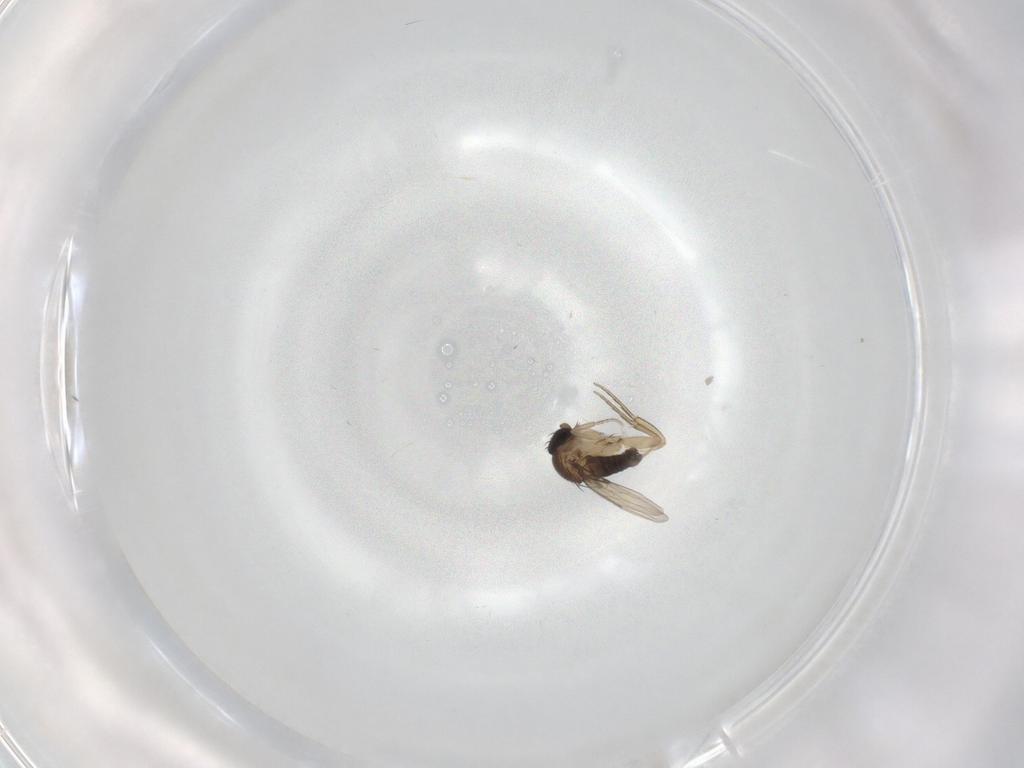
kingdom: Animalia
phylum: Arthropoda
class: Insecta
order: Diptera
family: Phoridae
